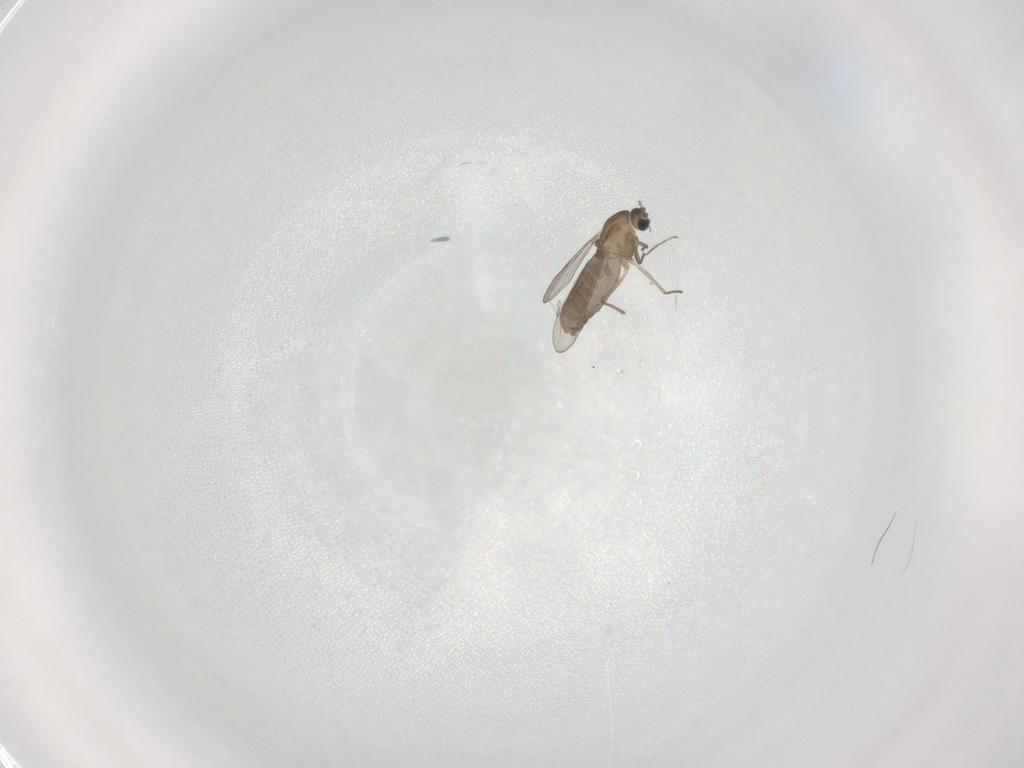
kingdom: Animalia
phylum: Arthropoda
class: Insecta
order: Diptera
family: Chironomidae
